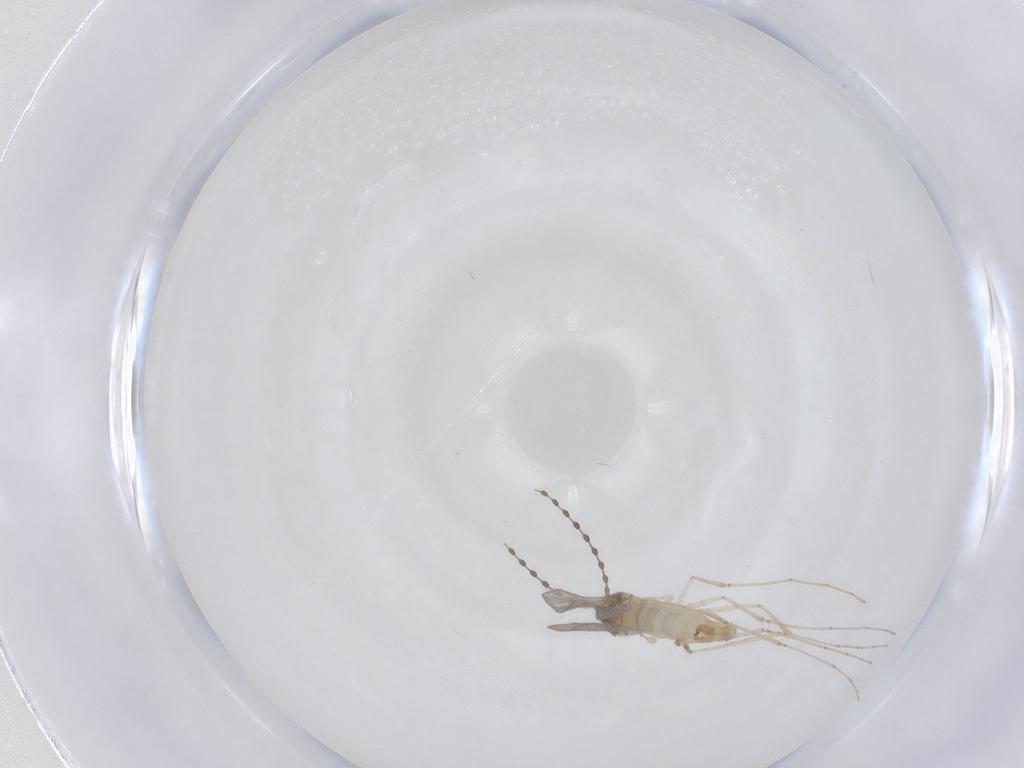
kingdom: Animalia
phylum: Arthropoda
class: Insecta
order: Diptera
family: Cecidomyiidae
